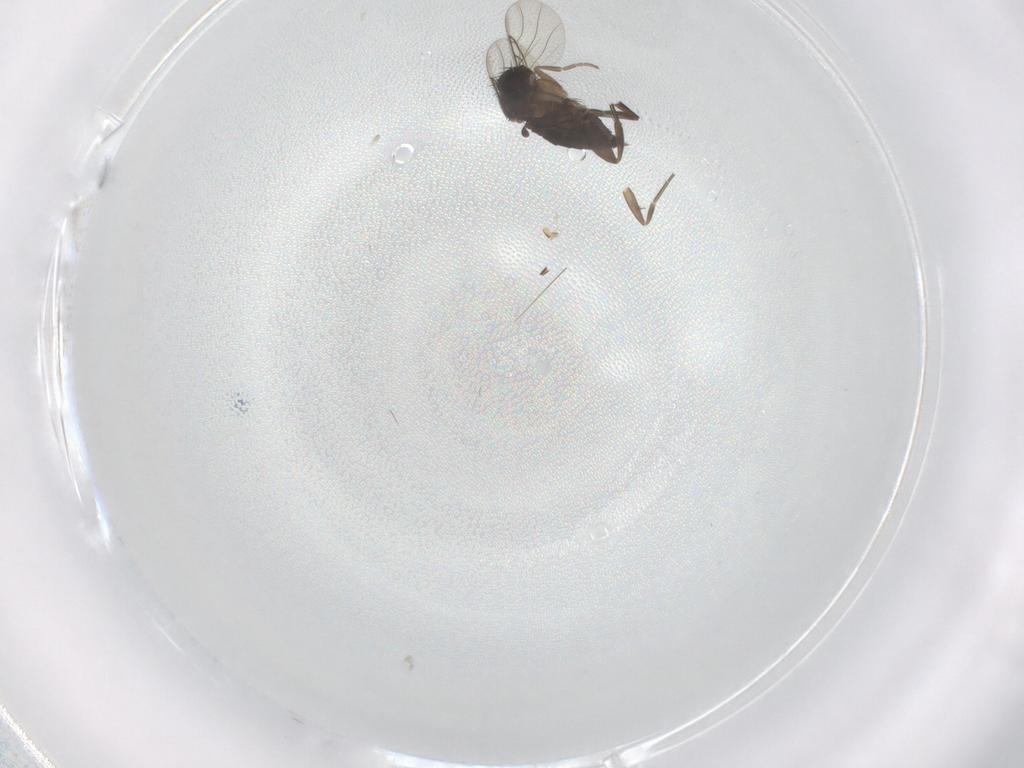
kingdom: Animalia
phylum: Arthropoda
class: Insecta
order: Diptera
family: Phoridae
